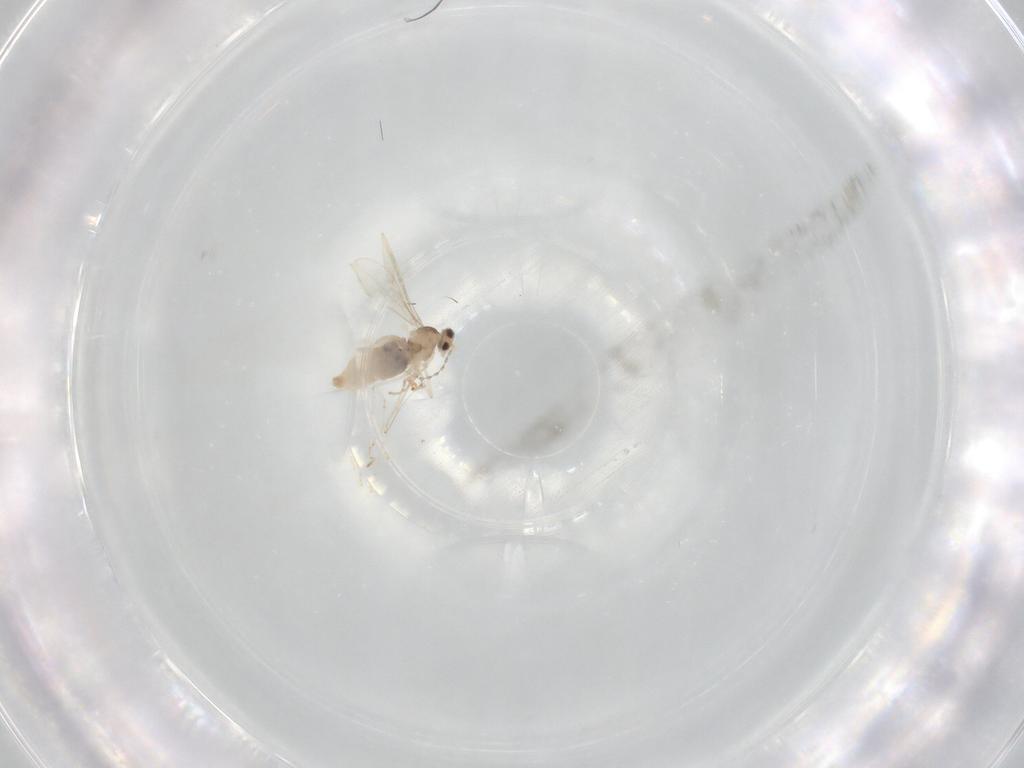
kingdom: Animalia
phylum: Arthropoda
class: Insecta
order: Diptera
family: Cecidomyiidae
